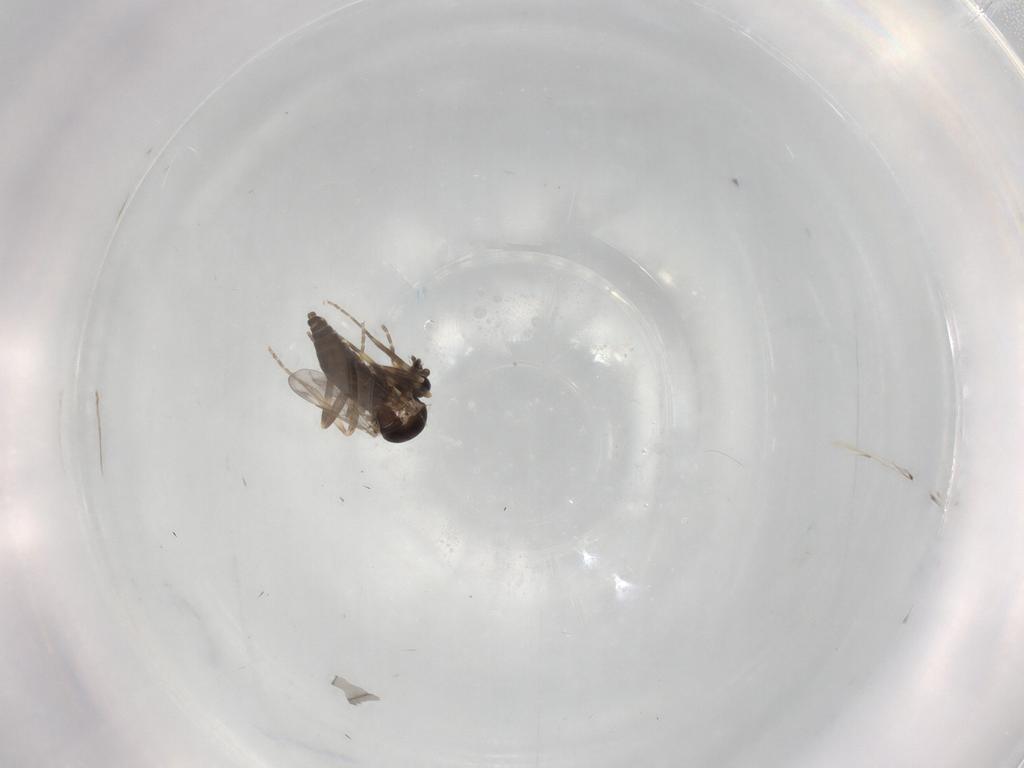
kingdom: Animalia
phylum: Arthropoda
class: Insecta
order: Diptera
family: Ceratopogonidae
